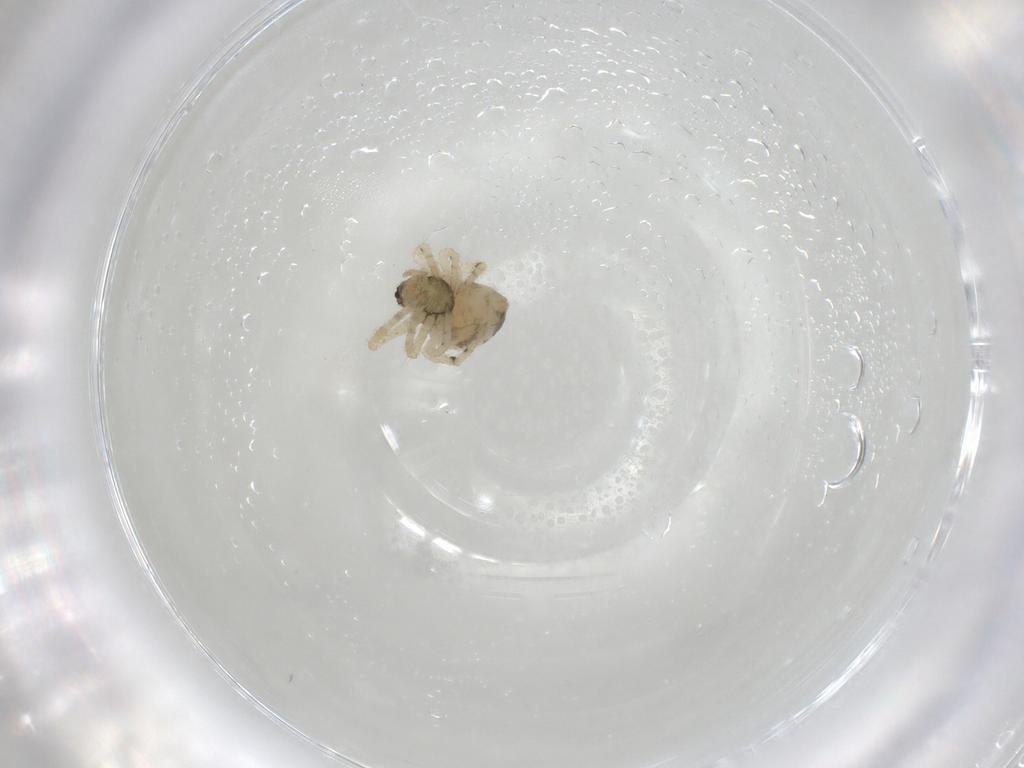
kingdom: Animalia
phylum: Arthropoda
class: Arachnida
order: Araneae
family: Theridiidae
